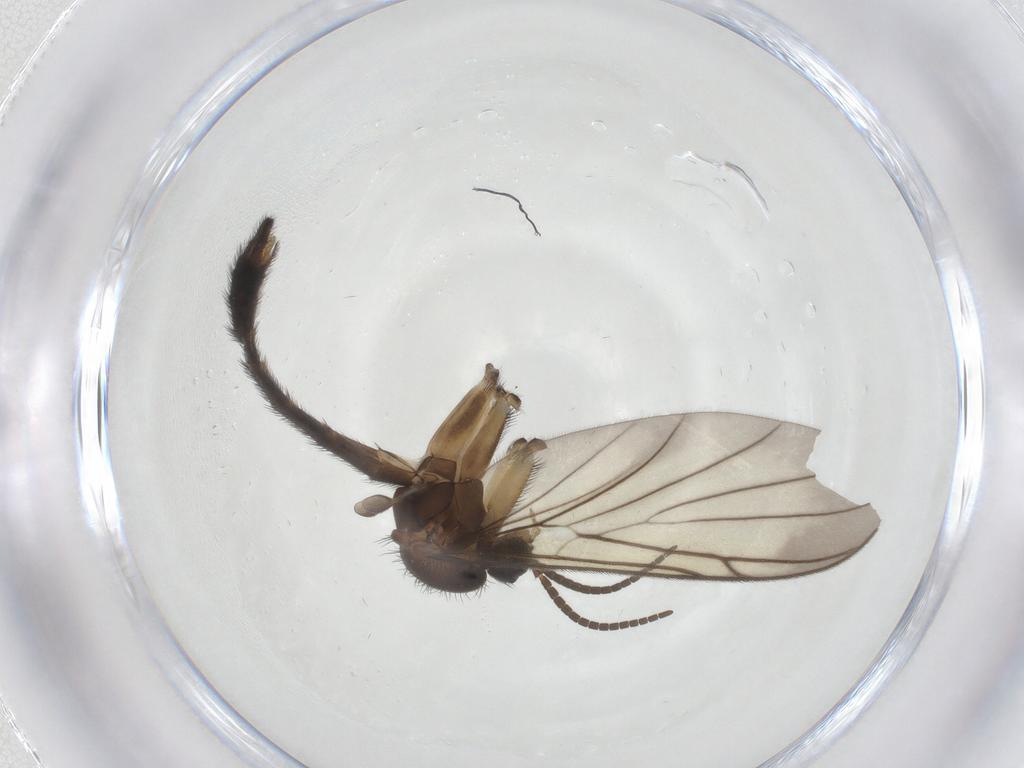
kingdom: Animalia
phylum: Arthropoda
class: Insecta
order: Diptera
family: Keroplatidae
